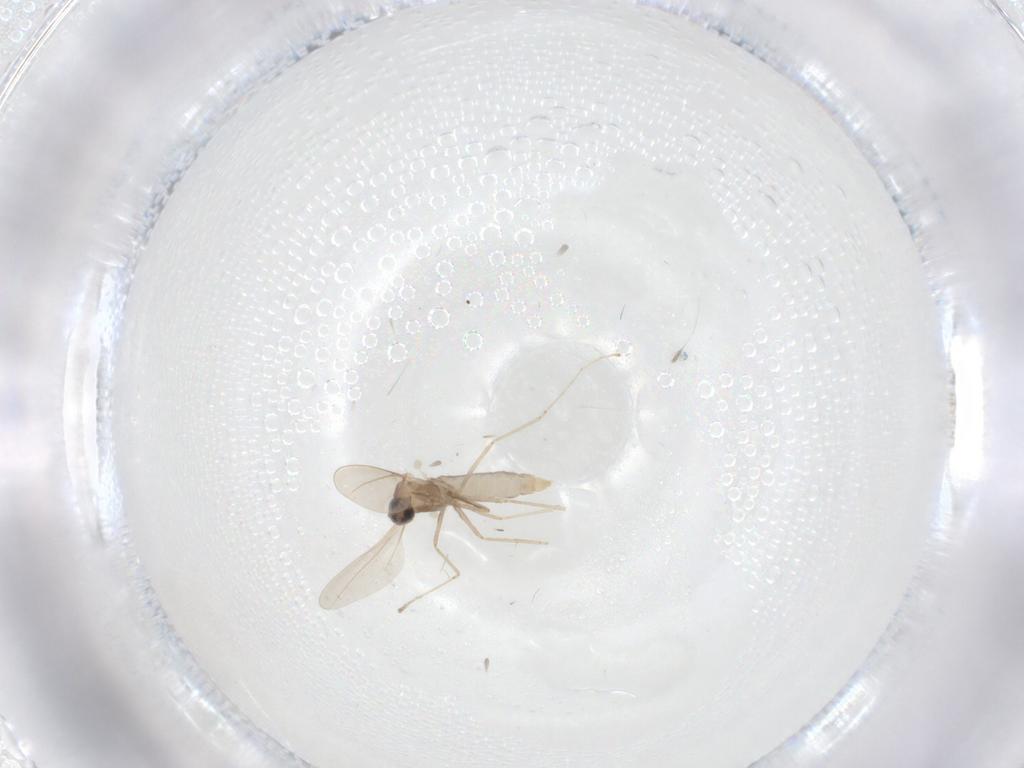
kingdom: Animalia
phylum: Arthropoda
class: Insecta
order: Diptera
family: Cecidomyiidae
